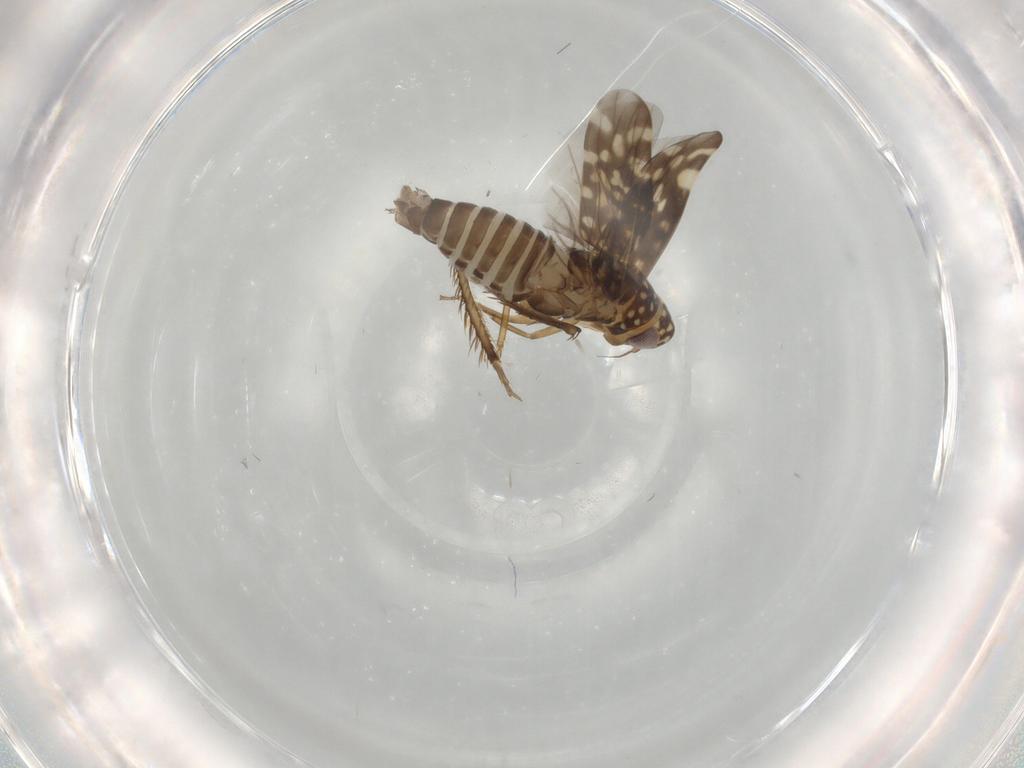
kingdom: Animalia
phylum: Arthropoda
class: Insecta
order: Hemiptera
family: Cicadellidae
